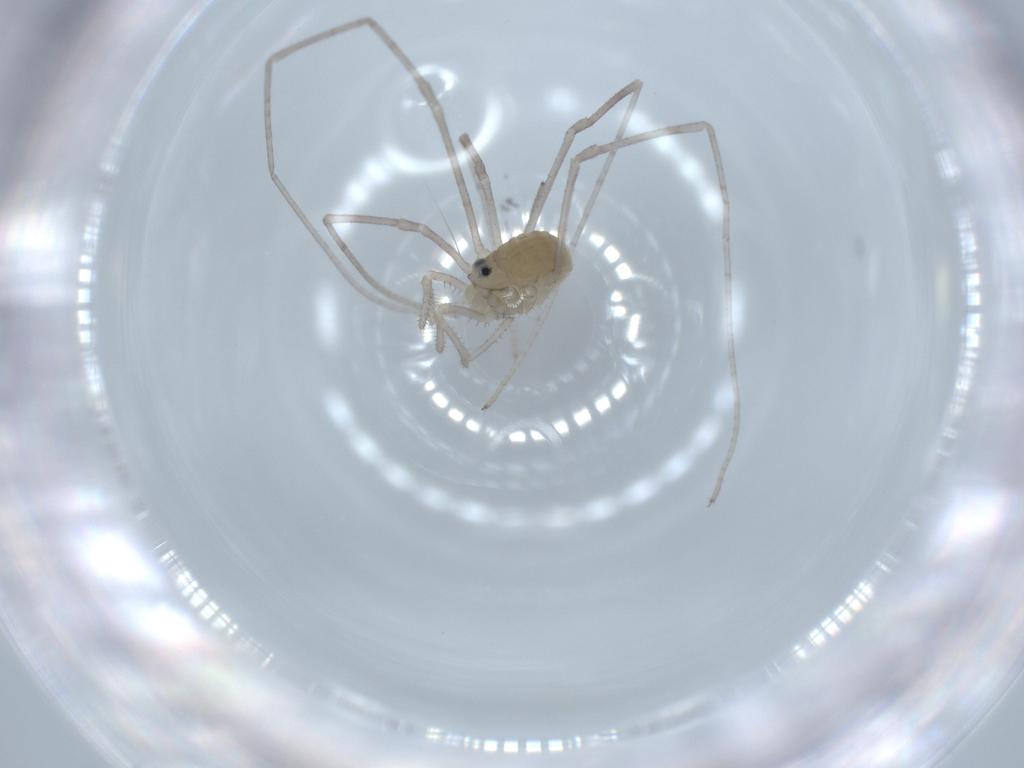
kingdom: Animalia
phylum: Arthropoda
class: Arachnida
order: Opiliones
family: Sclerosomatidae
